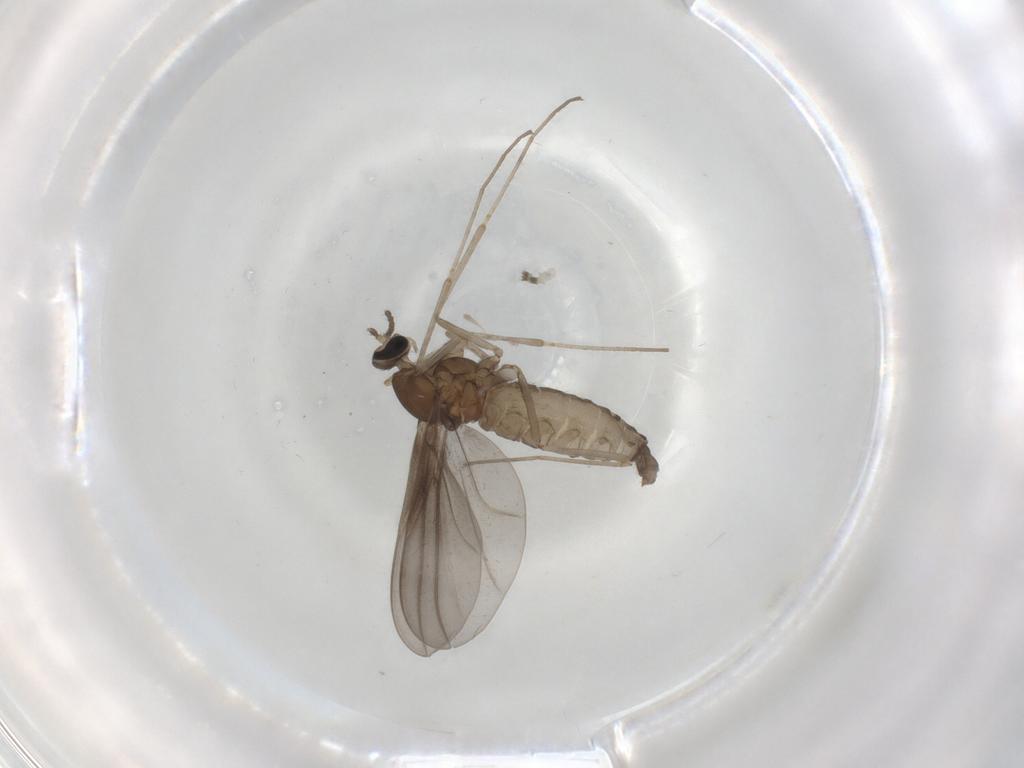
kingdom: Animalia
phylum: Arthropoda
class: Insecta
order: Diptera
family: Cecidomyiidae
